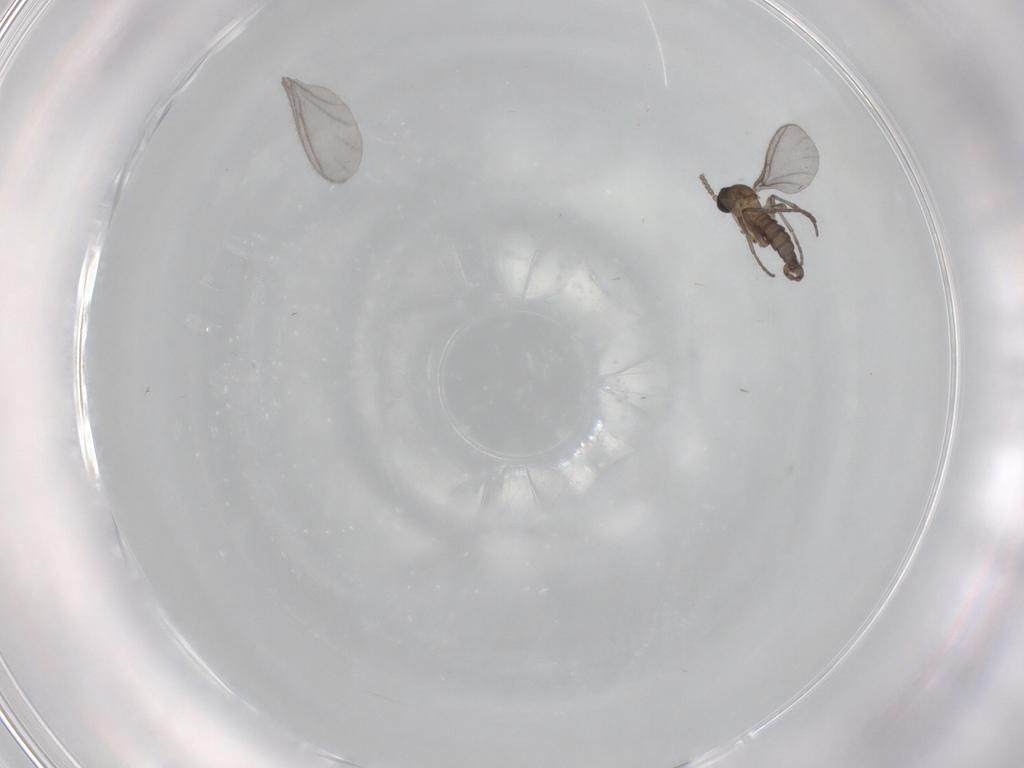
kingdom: Animalia
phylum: Arthropoda
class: Insecta
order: Diptera
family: Sciaridae
